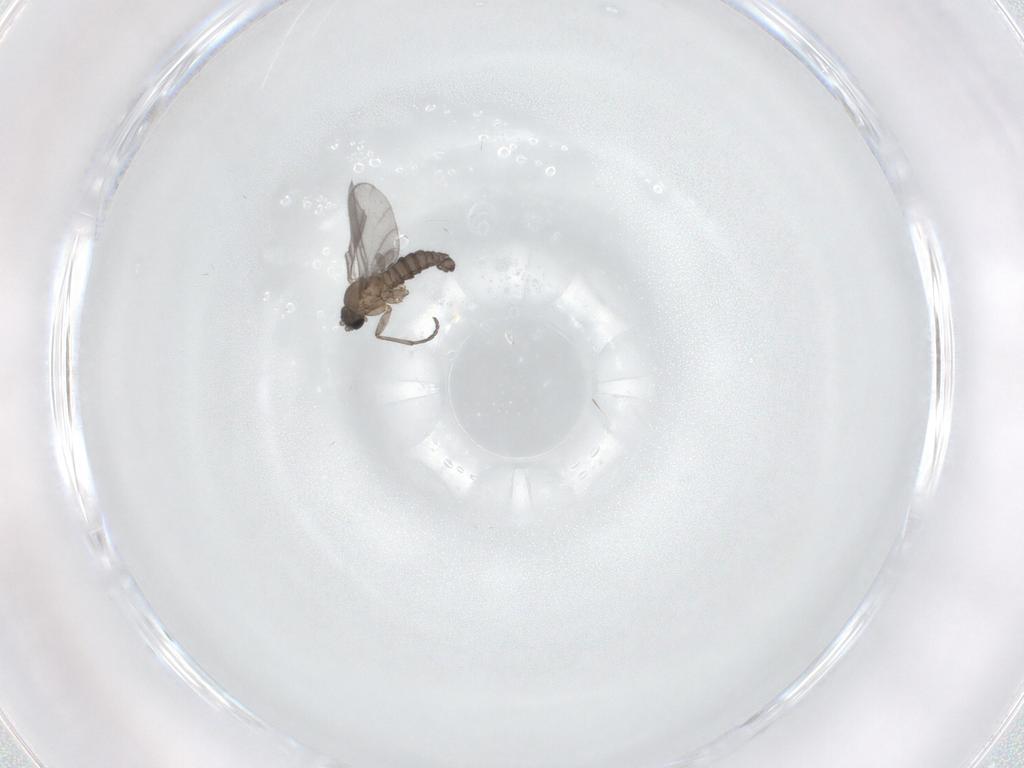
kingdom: Animalia
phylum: Arthropoda
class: Insecta
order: Diptera
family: Sciaridae
